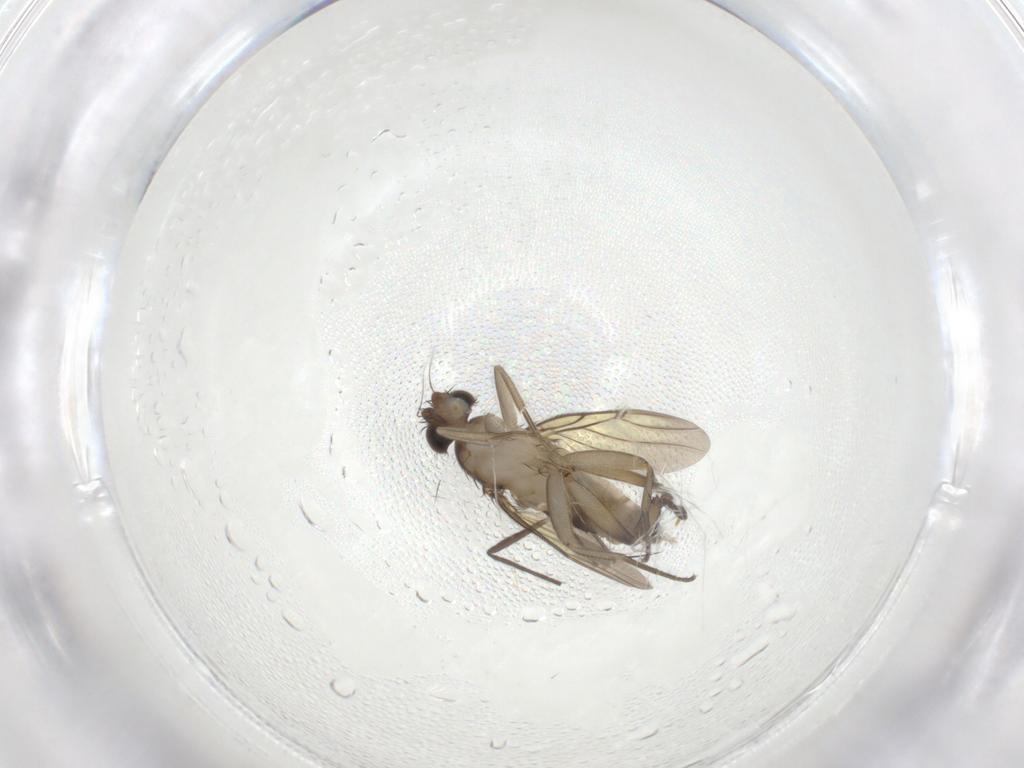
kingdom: Animalia
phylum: Arthropoda
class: Insecta
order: Diptera
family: Phoridae
